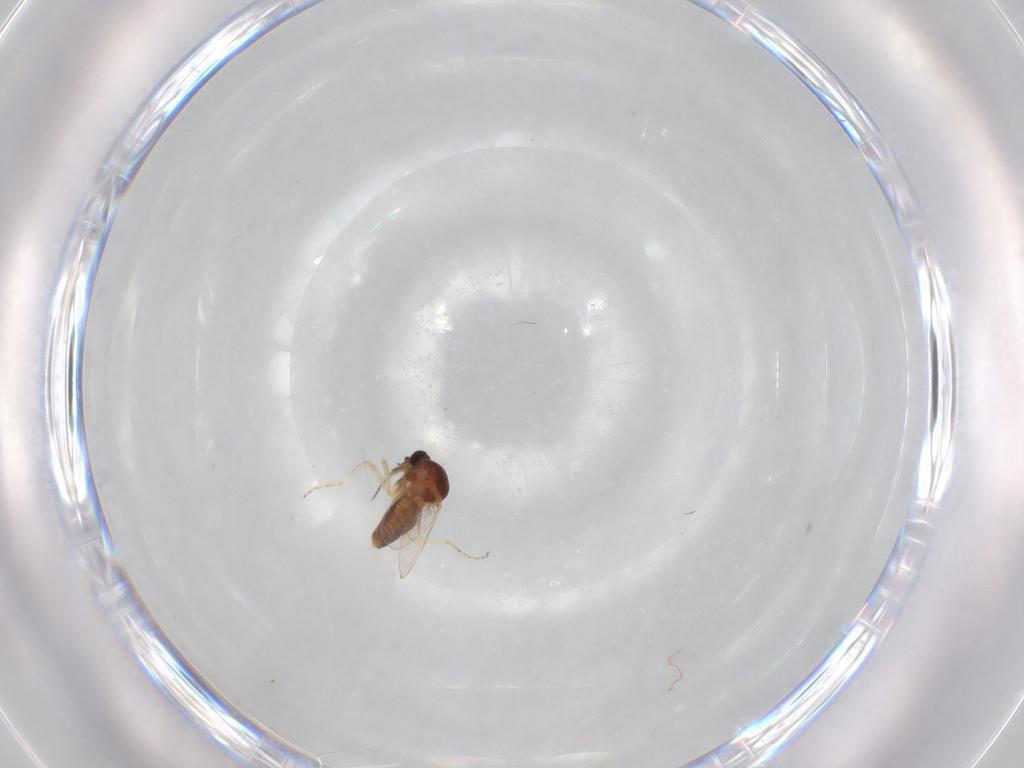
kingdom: Animalia
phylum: Arthropoda
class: Insecta
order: Diptera
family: Ceratopogonidae
